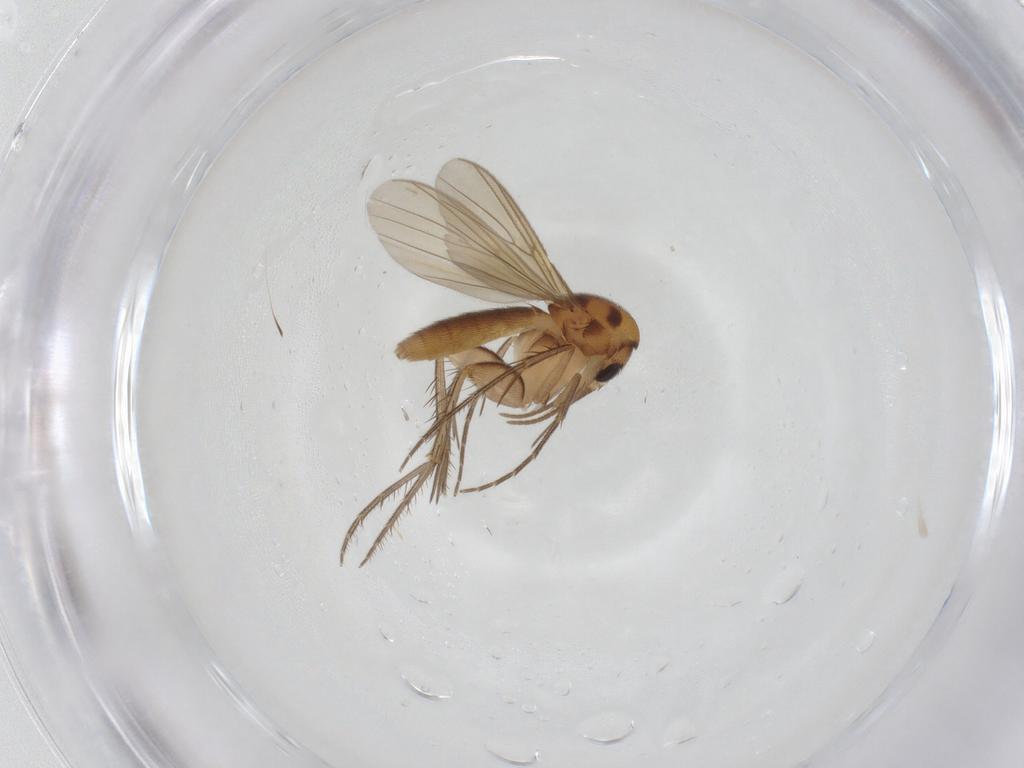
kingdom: Animalia
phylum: Arthropoda
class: Insecta
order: Diptera
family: Mycetophilidae
